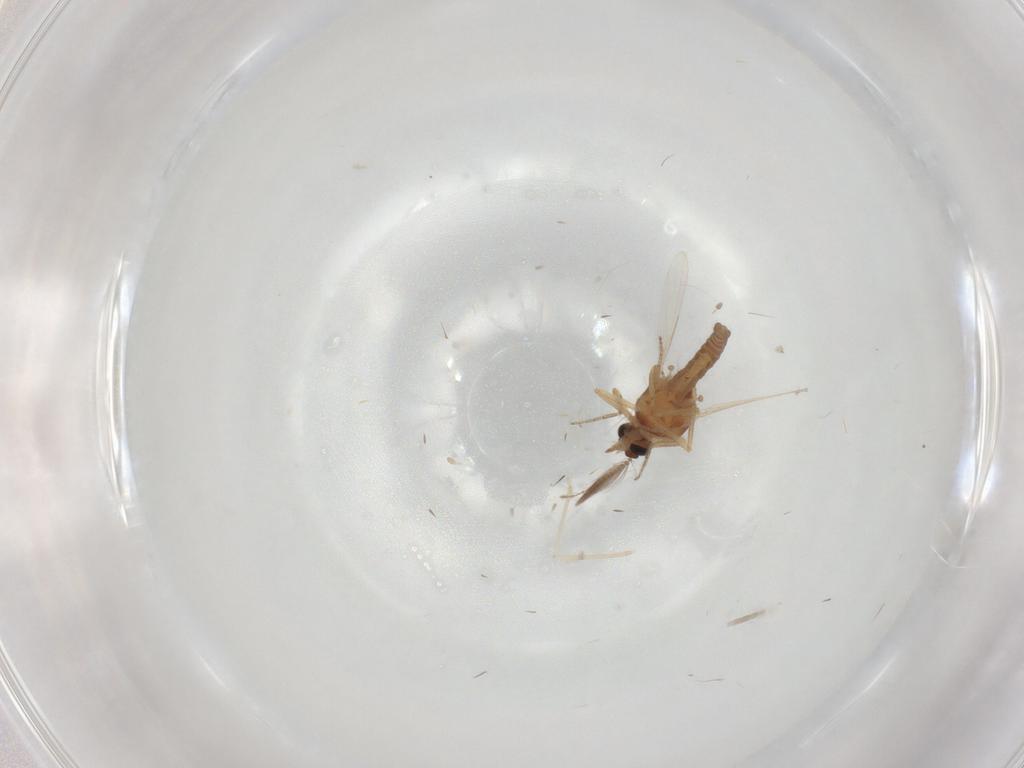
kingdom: Animalia
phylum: Arthropoda
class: Insecta
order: Diptera
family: Ceratopogonidae
